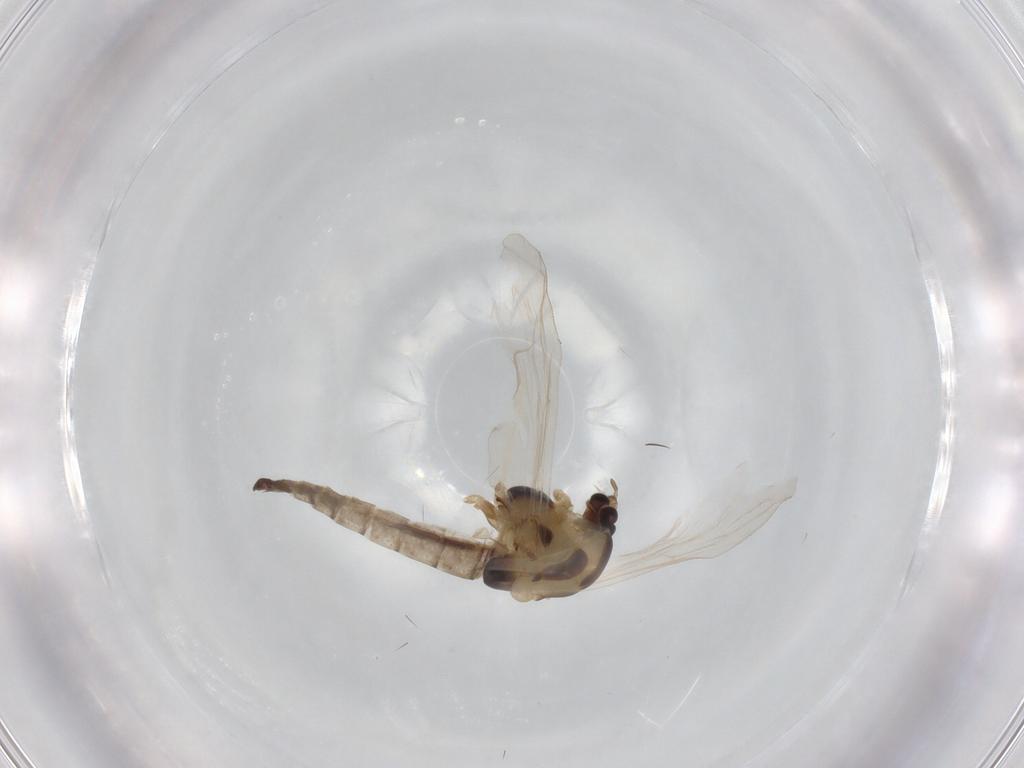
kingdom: Animalia
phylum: Arthropoda
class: Insecta
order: Diptera
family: Chironomidae
